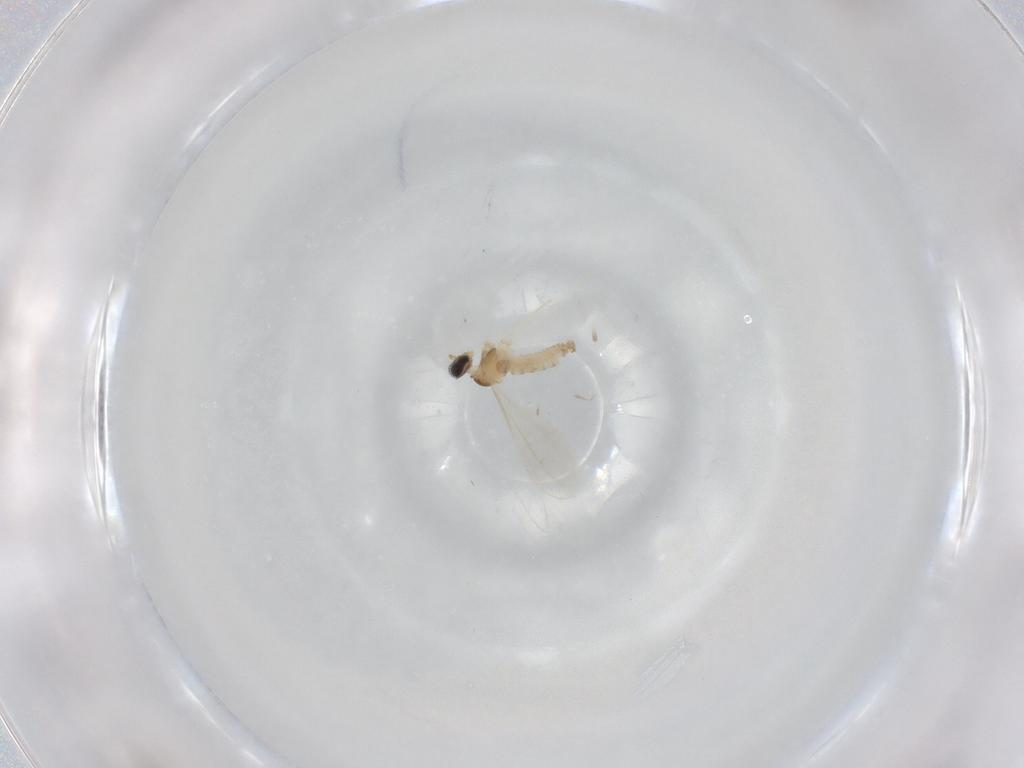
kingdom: Animalia
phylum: Arthropoda
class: Insecta
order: Diptera
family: Cecidomyiidae
